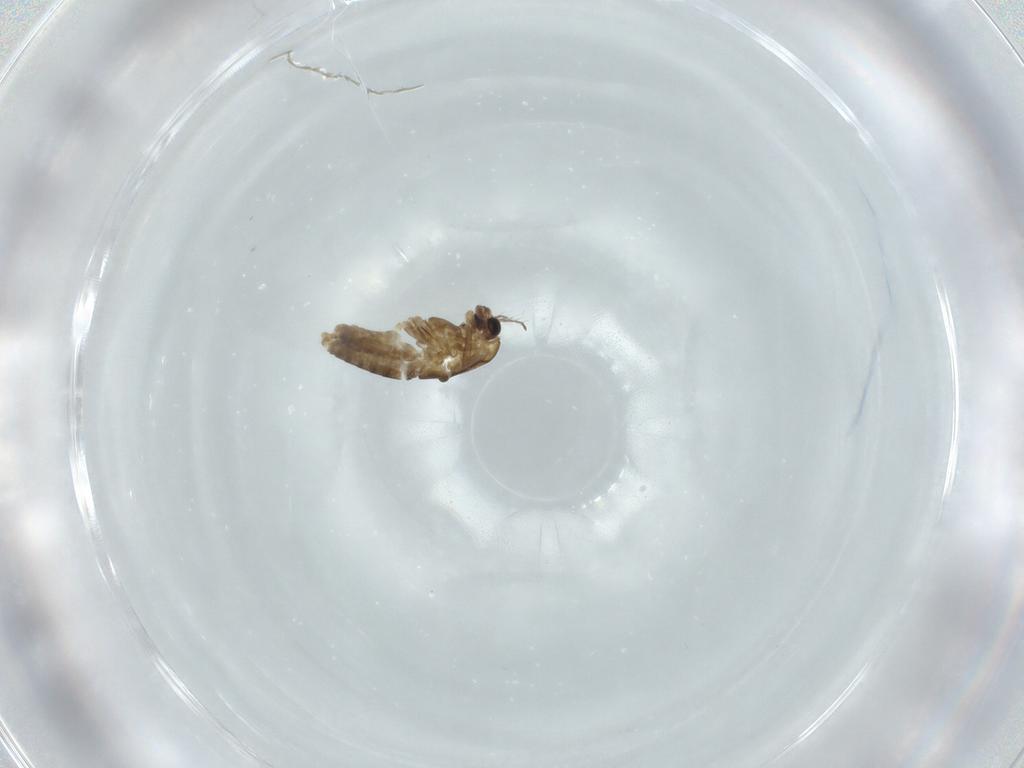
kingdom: Animalia
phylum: Arthropoda
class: Insecta
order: Diptera
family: Chironomidae
